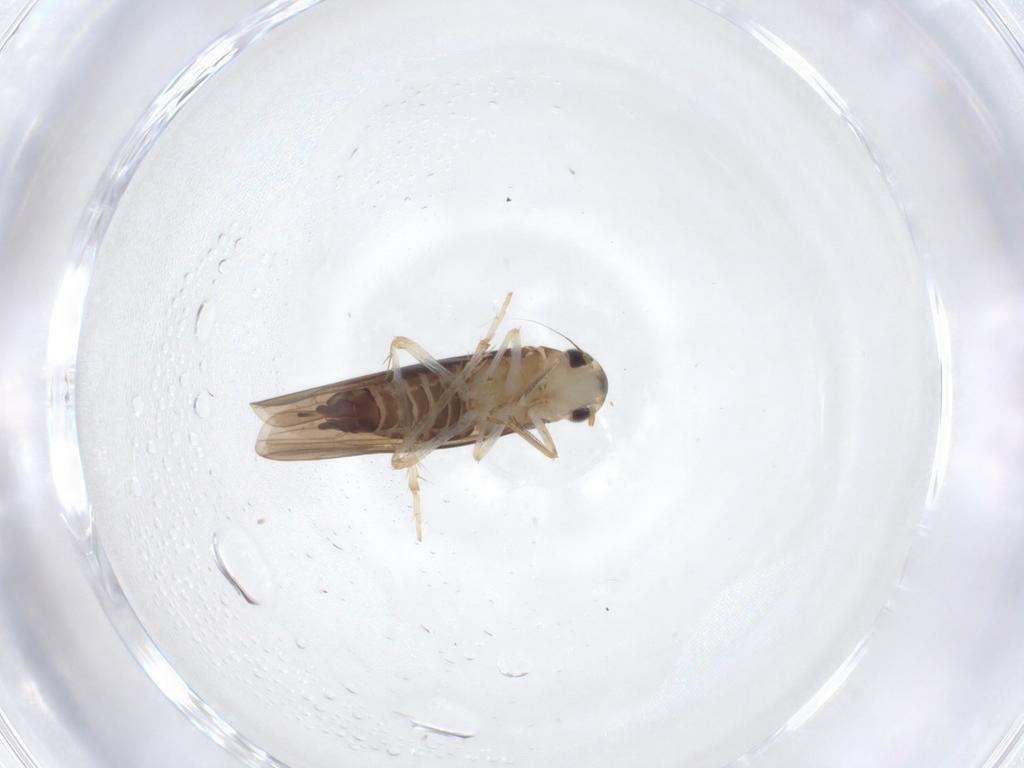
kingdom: Animalia
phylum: Arthropoda
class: Insecta
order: Hemiptera
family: Cicadellidae
